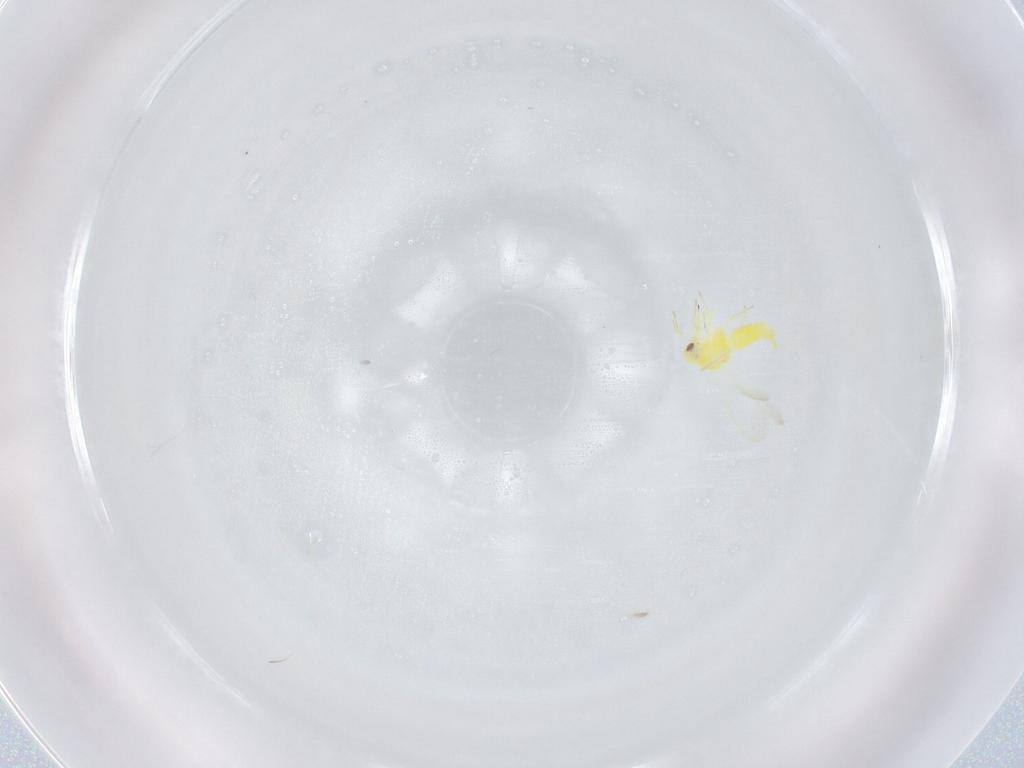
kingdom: Animalia
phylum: Arthropoda
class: Insecta
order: Hemiptera
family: Aleyrodidae
